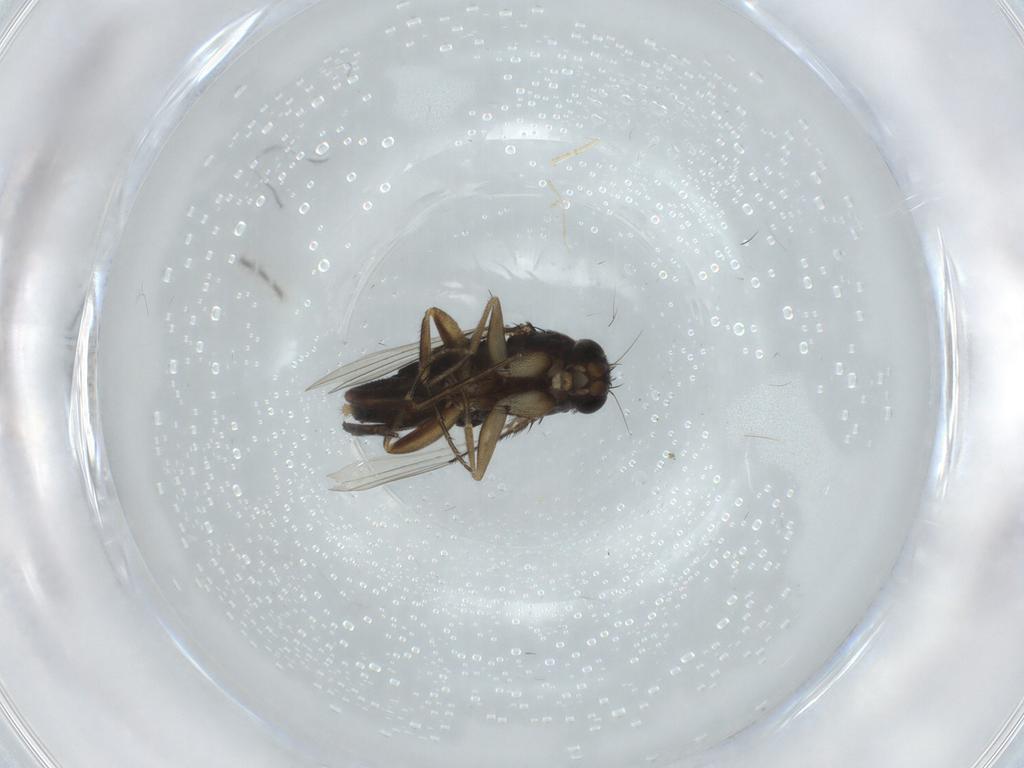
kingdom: Animalia
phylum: Arthropoda
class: Insecta
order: Diptera
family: Phoridae
